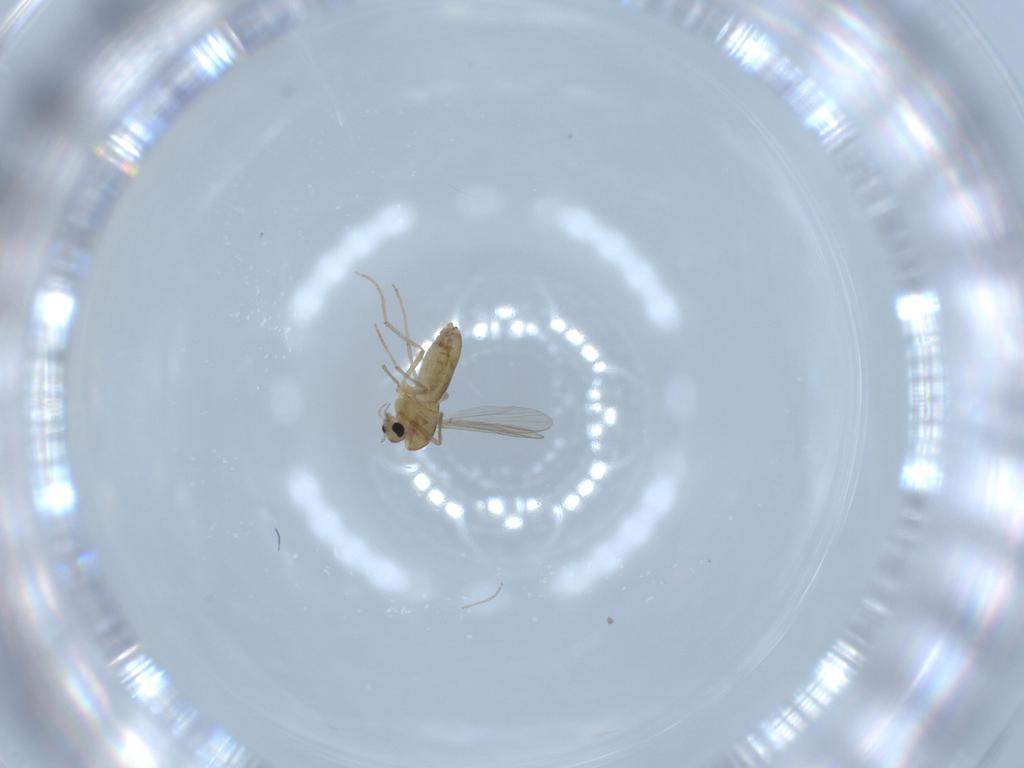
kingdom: Animalia
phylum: Arthropoda
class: Insecta
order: Diptera
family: Chironomidae
